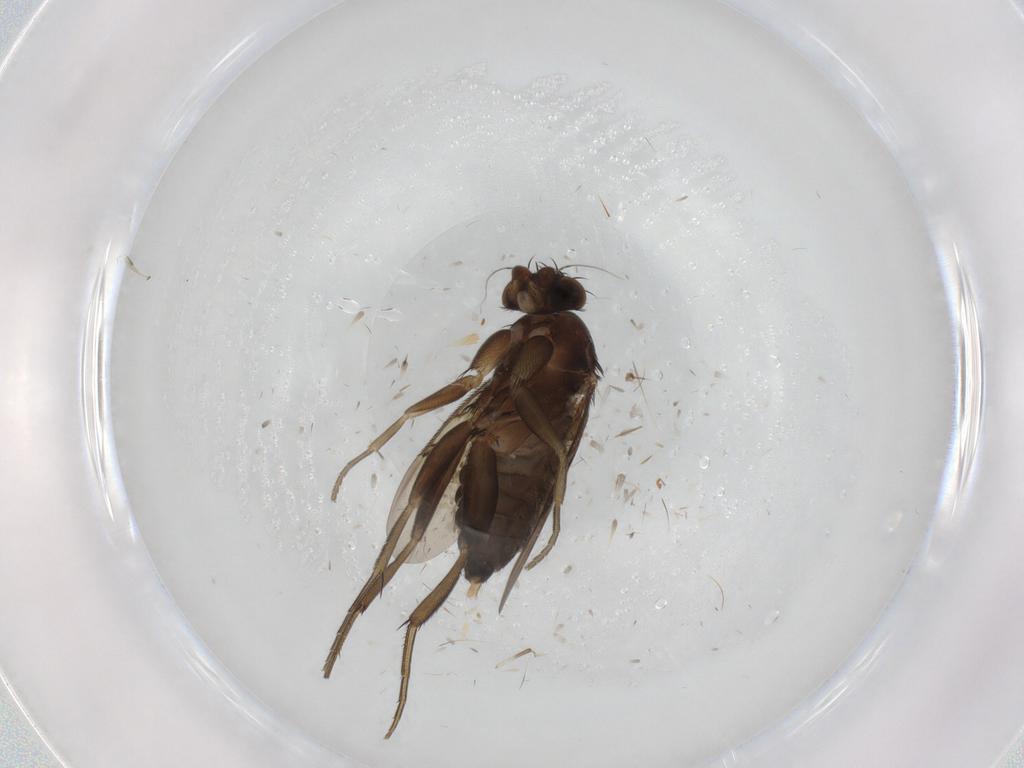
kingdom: Animalia
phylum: Arthropoda
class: Insecta
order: Diptera
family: Phoridae
